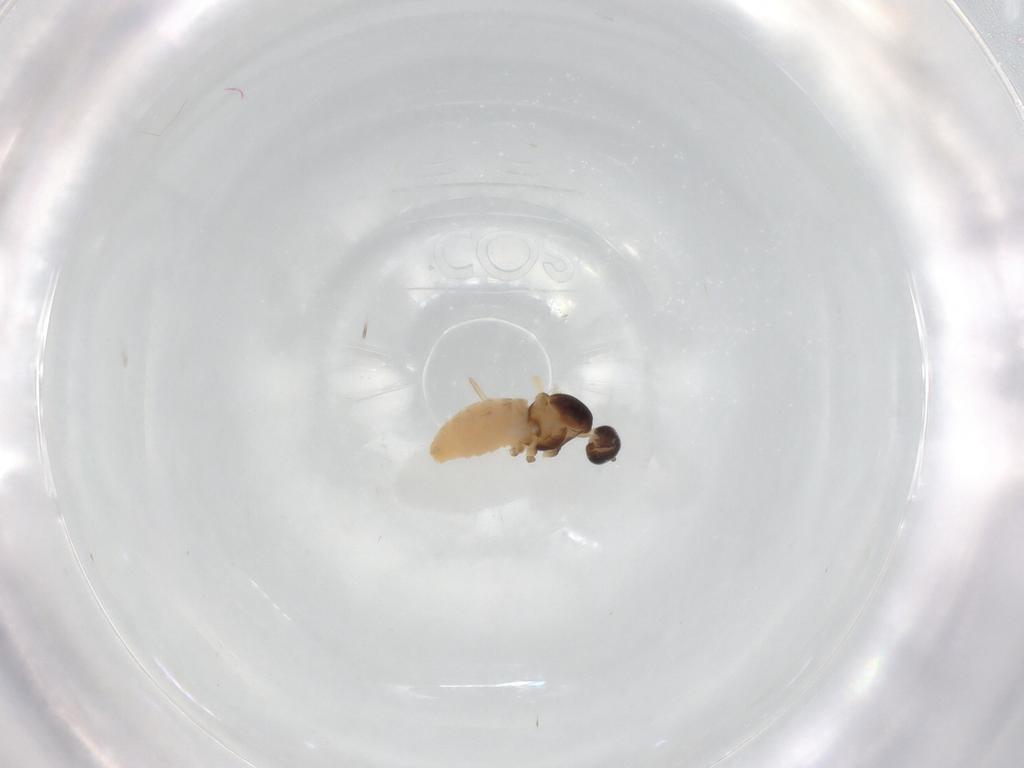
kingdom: Animalia
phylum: Arthropoda
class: Insecta
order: Diptera
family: Cecidomyiidae
